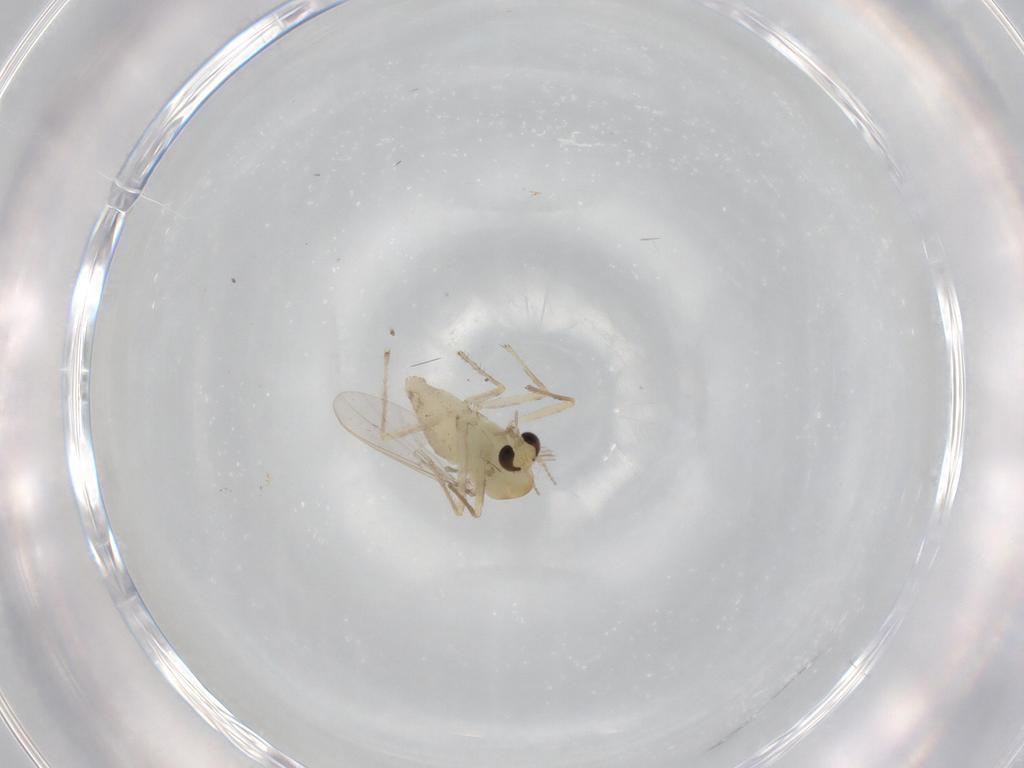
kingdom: Animalia
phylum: Arthropoda
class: Insecta
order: Diptera
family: Chironomidae
